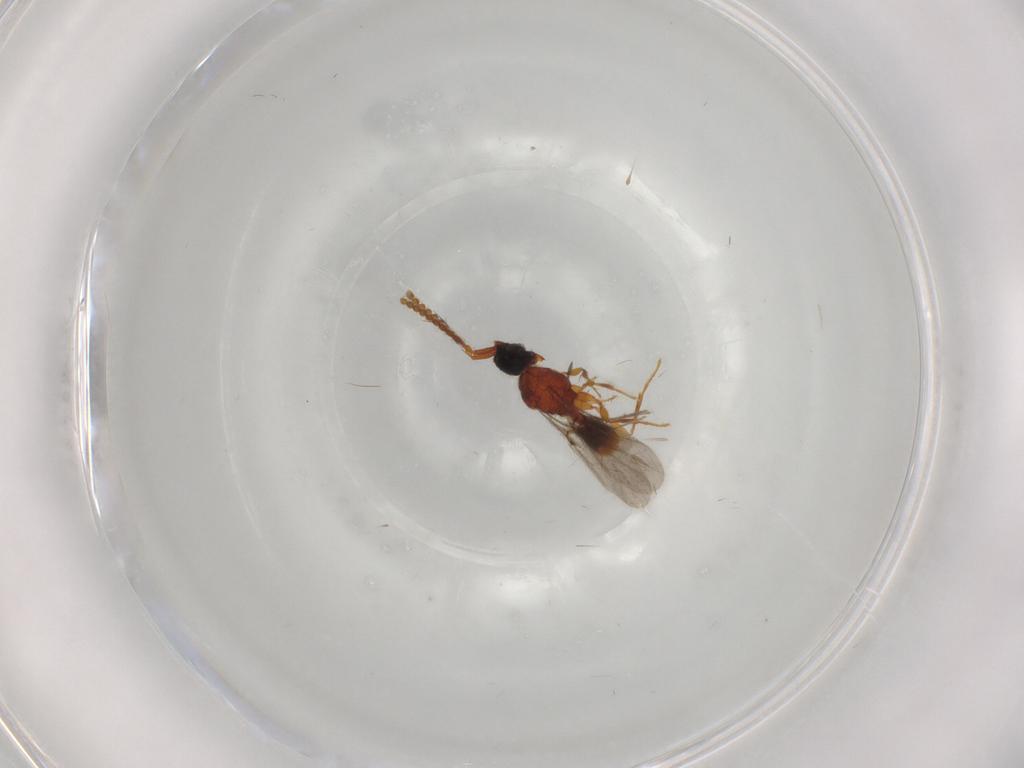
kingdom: Animalia
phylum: Arthropoda
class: Insecta
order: Hymenoptera
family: Diapriidae
